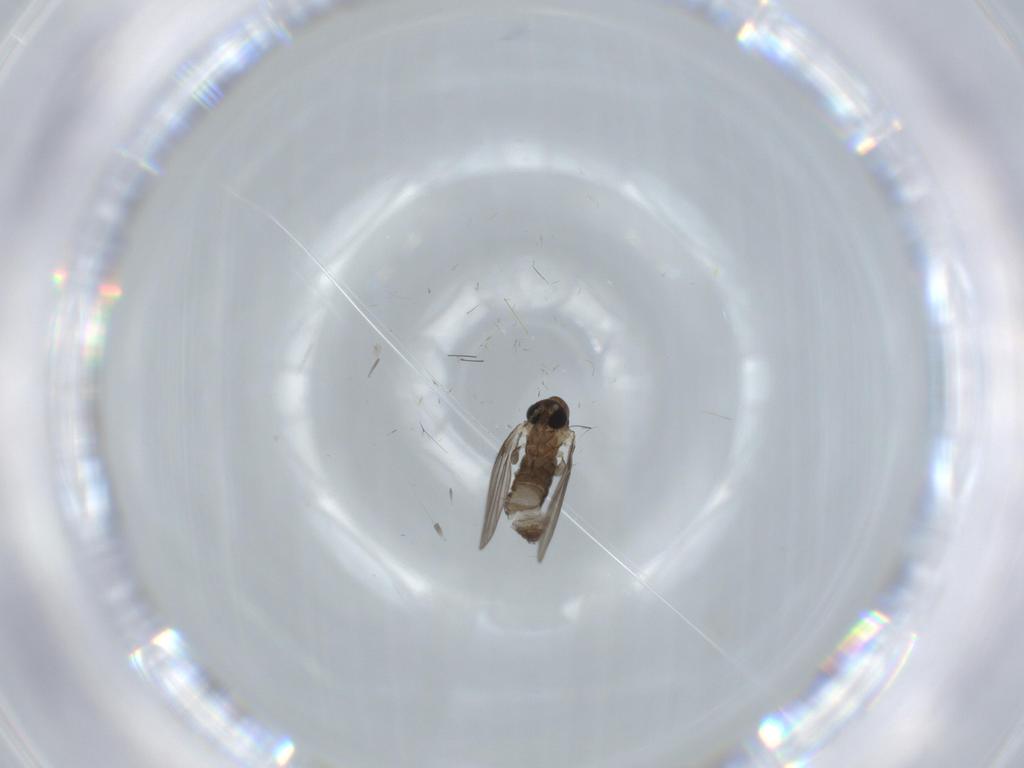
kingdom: Animalia
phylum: Arthropoda
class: Insecta
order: Diptera
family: Psychodidae
